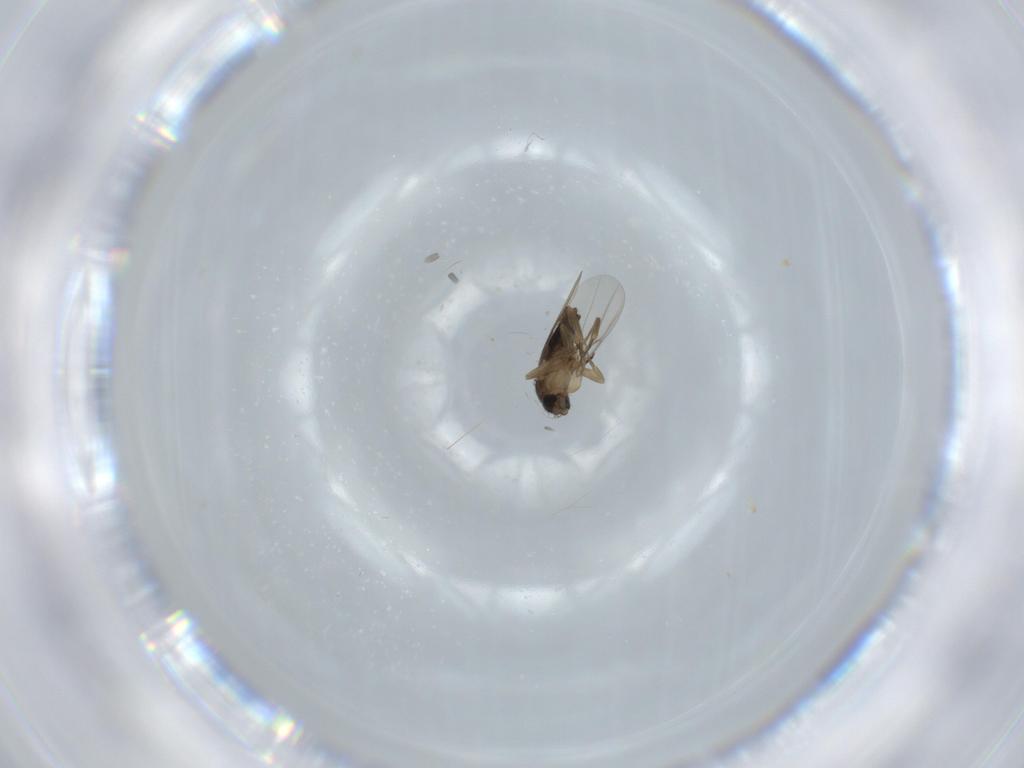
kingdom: Animalia
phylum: Arthropoda
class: Insecta
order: Diptera
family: Phoridae
